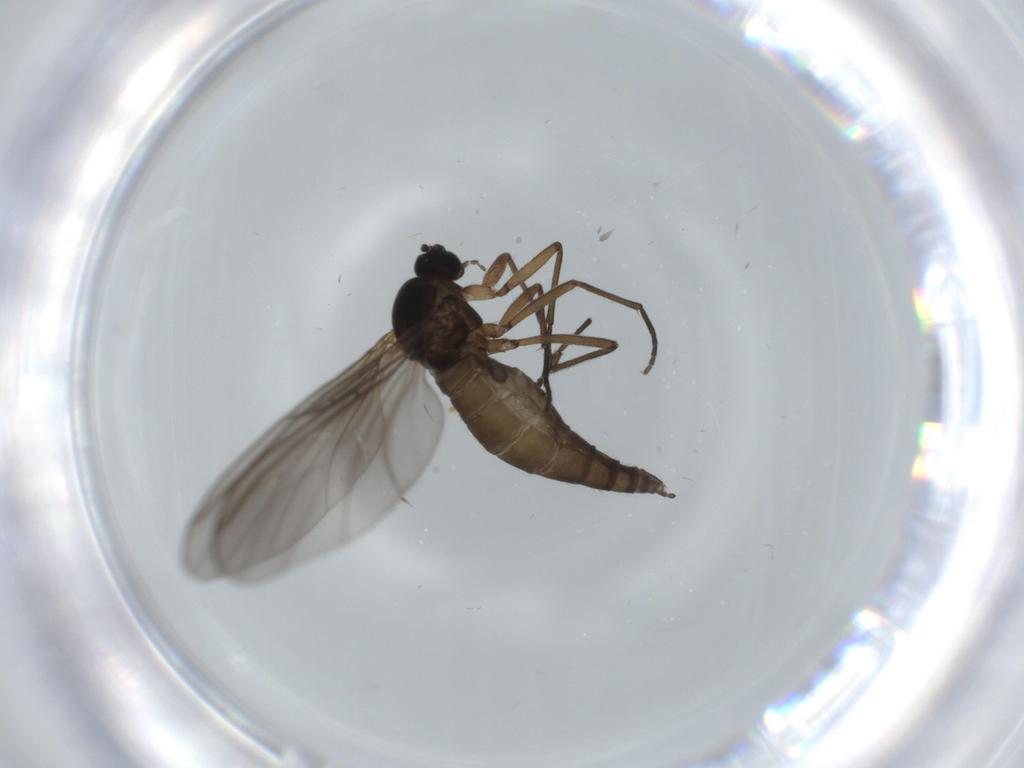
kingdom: Animalia
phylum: Arthropoda
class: Insecta
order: Diptera
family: Sciaridae
